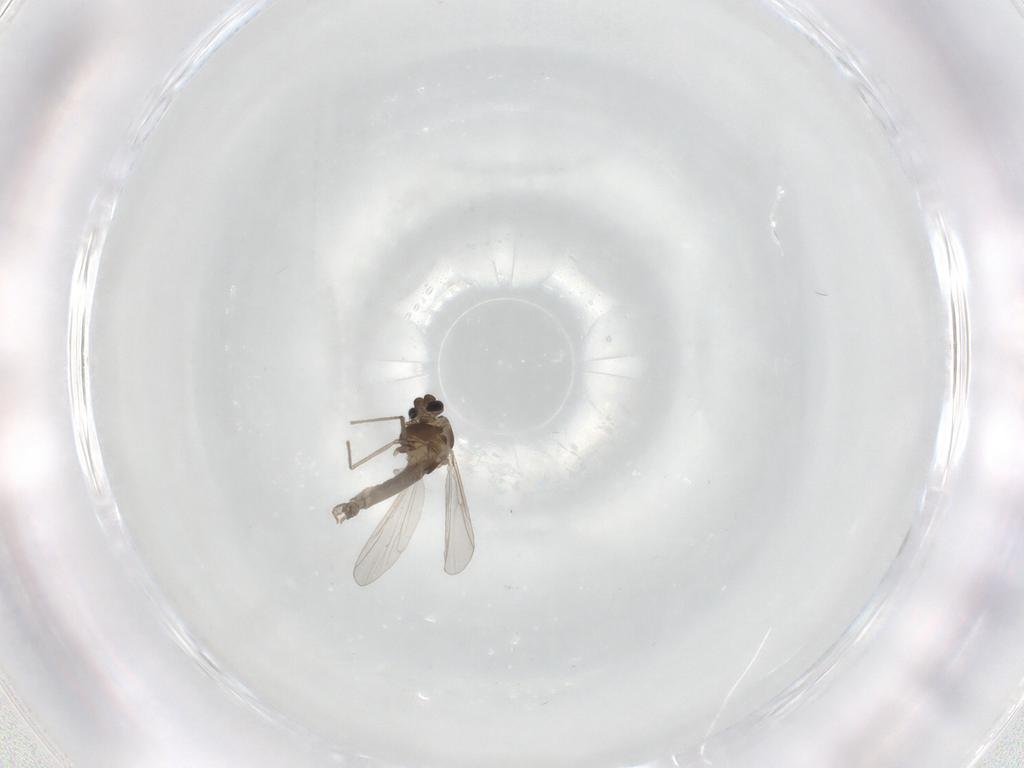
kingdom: Animalia
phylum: Arthropoda
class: Insecta
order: Diptera
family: Chironomidae
